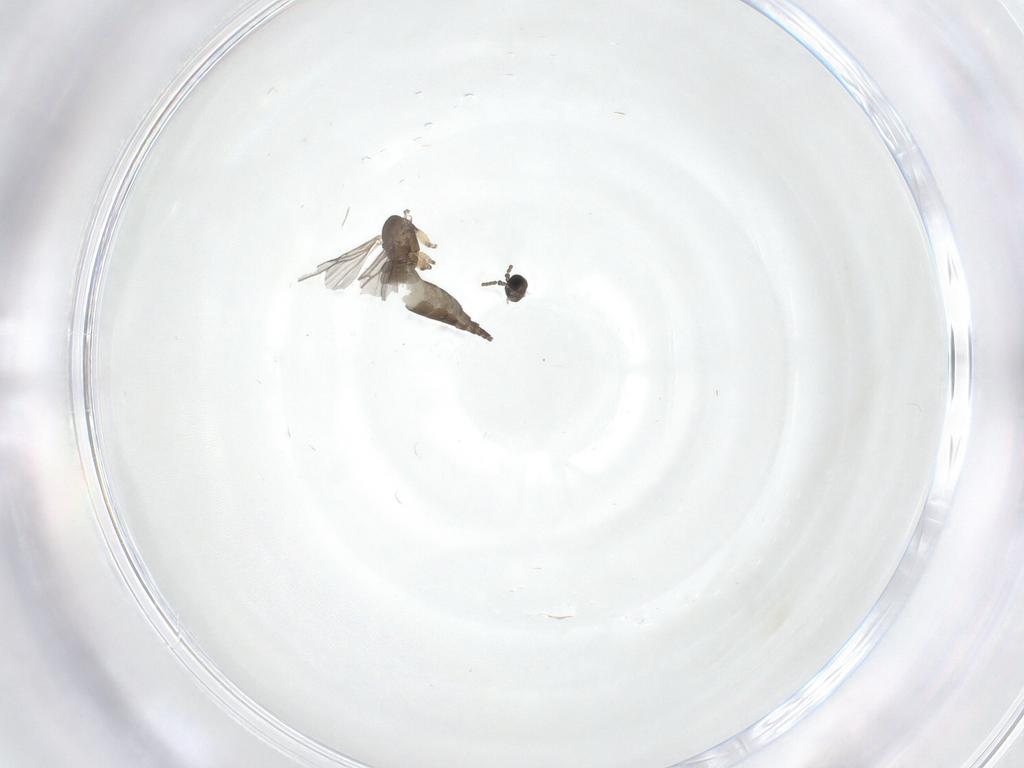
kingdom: Animalia
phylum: Arthropoda
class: Insecta
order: Diptera
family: Sciaridae
